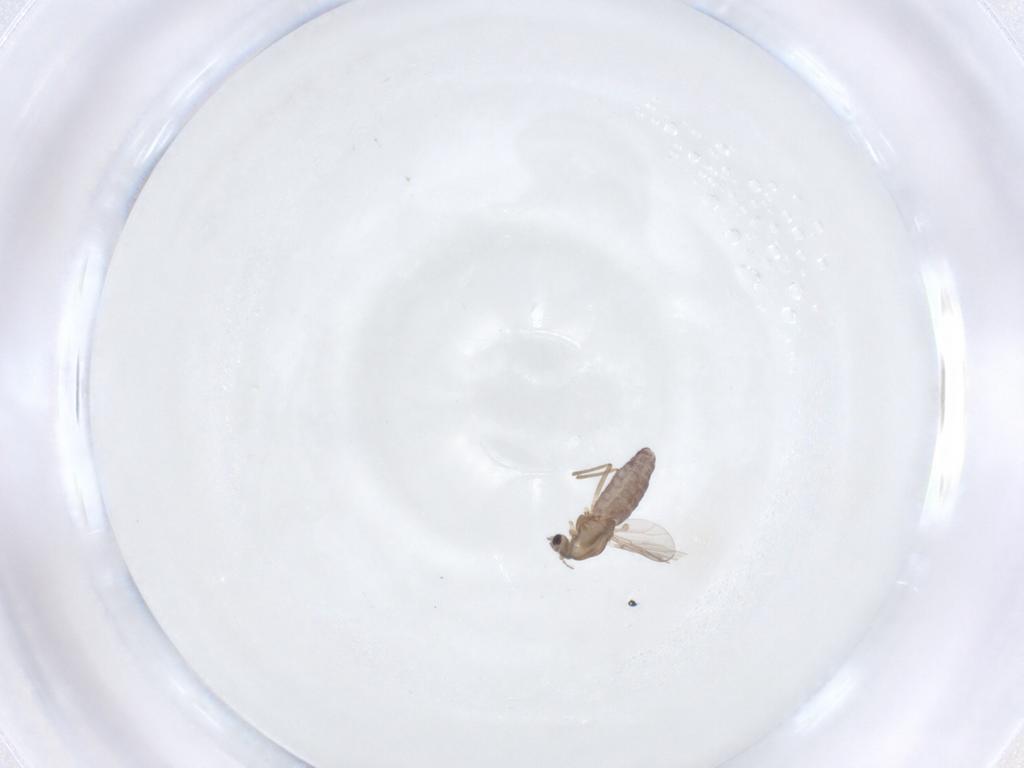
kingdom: Animalia
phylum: Arthropoda
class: Insecta
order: Diptera
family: Chironomidae
